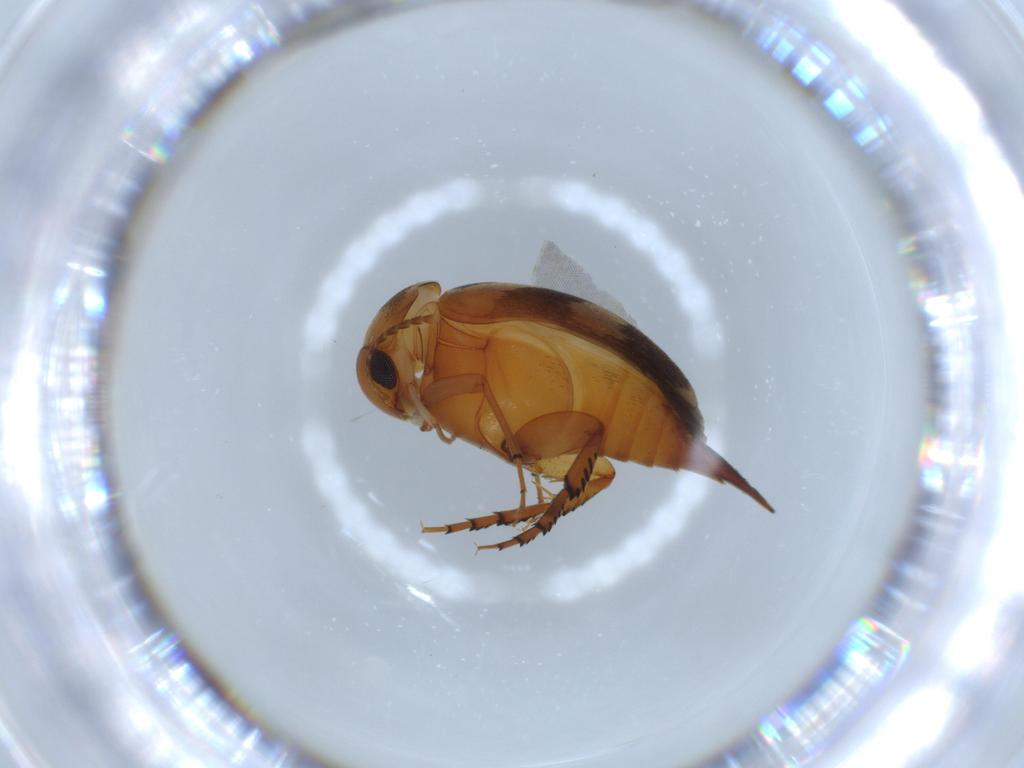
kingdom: Animalia
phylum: Arthropoda
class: Insecta
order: Coleoptera
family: Mordellidae
